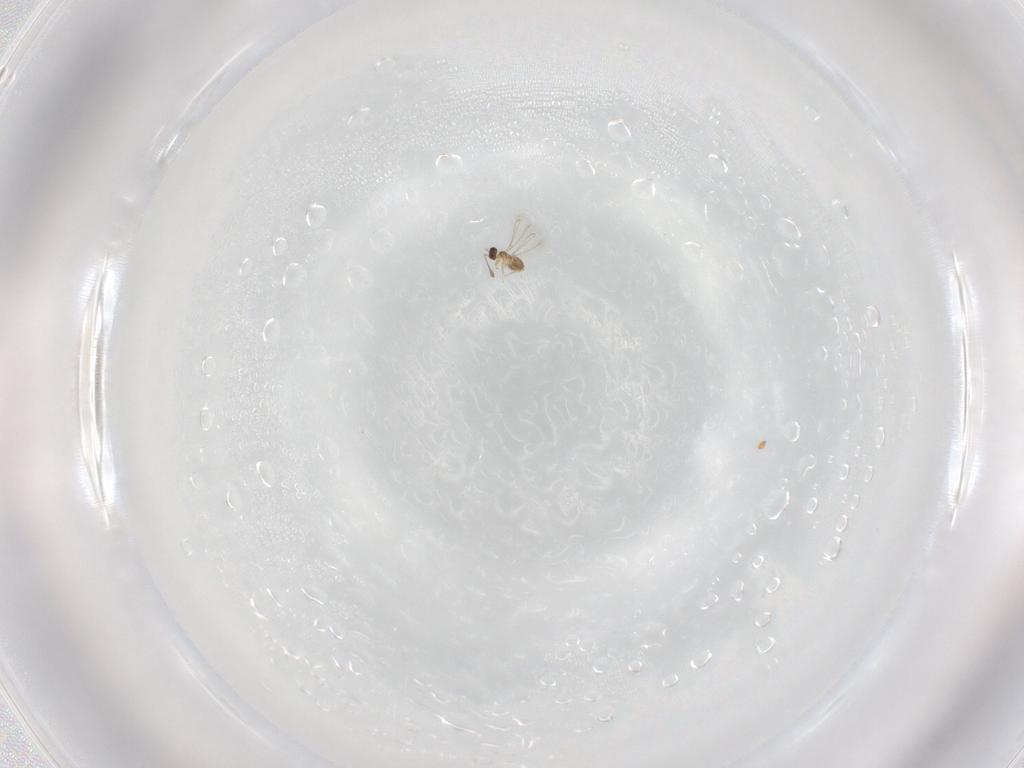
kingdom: Animalia
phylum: Arthropoda
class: Insecta
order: Hymenoptera
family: Mymaridae
